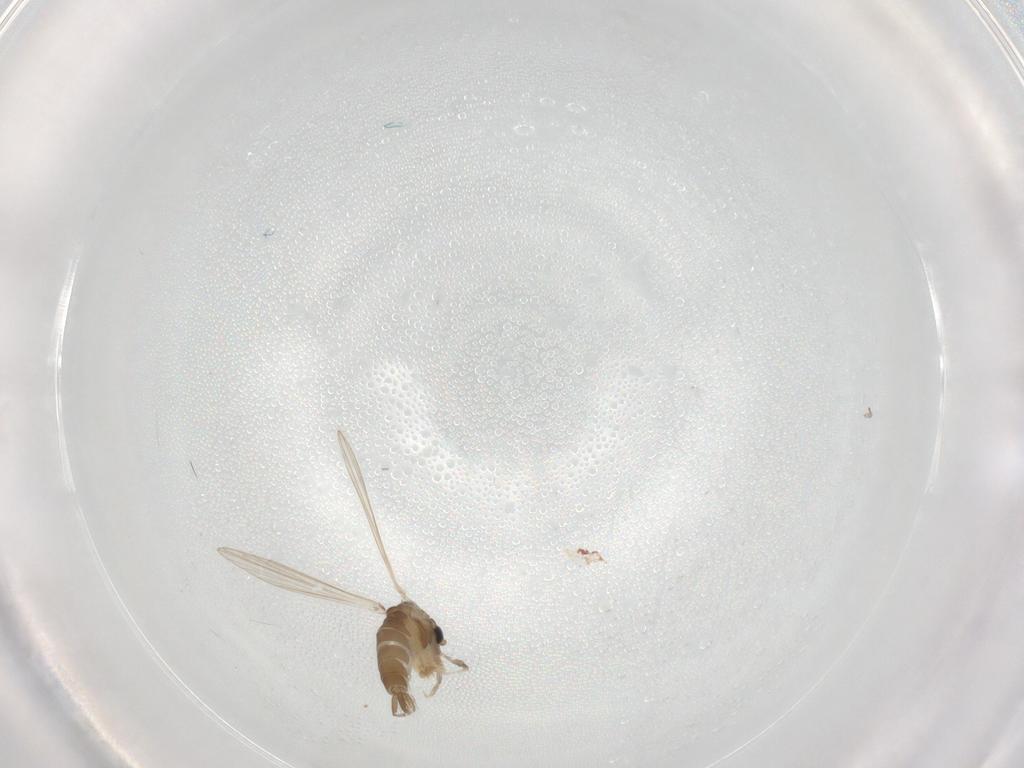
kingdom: Animalia
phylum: Arthropoda
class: Insecta
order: Diptera
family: Psychodidae
